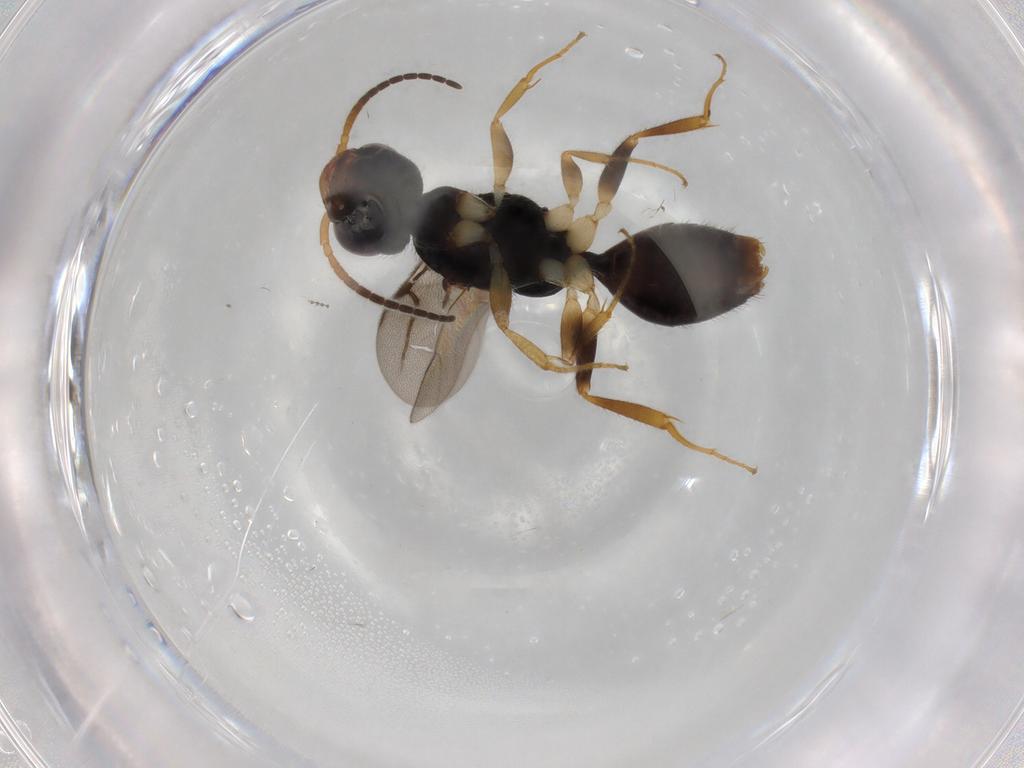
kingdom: Animalia
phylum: Arthropoda
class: Insecta
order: Hymenoptera
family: Bethylidae
